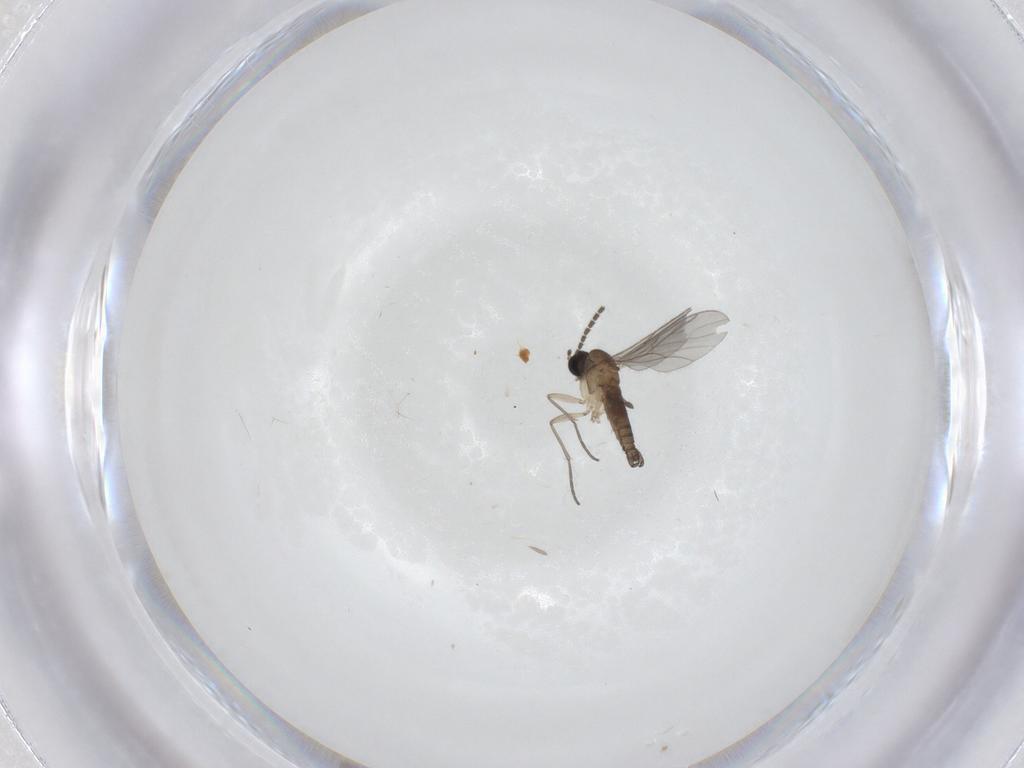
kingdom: Animalia
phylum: Arthropoda
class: Insecta
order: Diptera
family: Sciaridae
